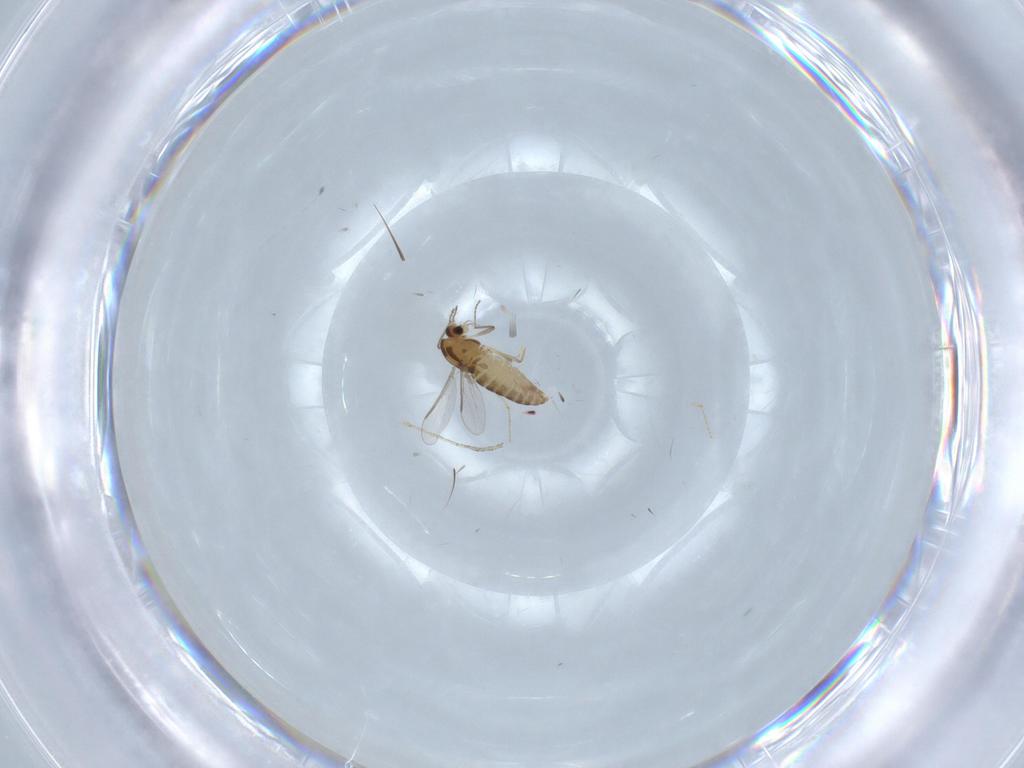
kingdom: Animalia
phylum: Arthropoda
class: Insecta
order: Diptera
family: Chironomidae
